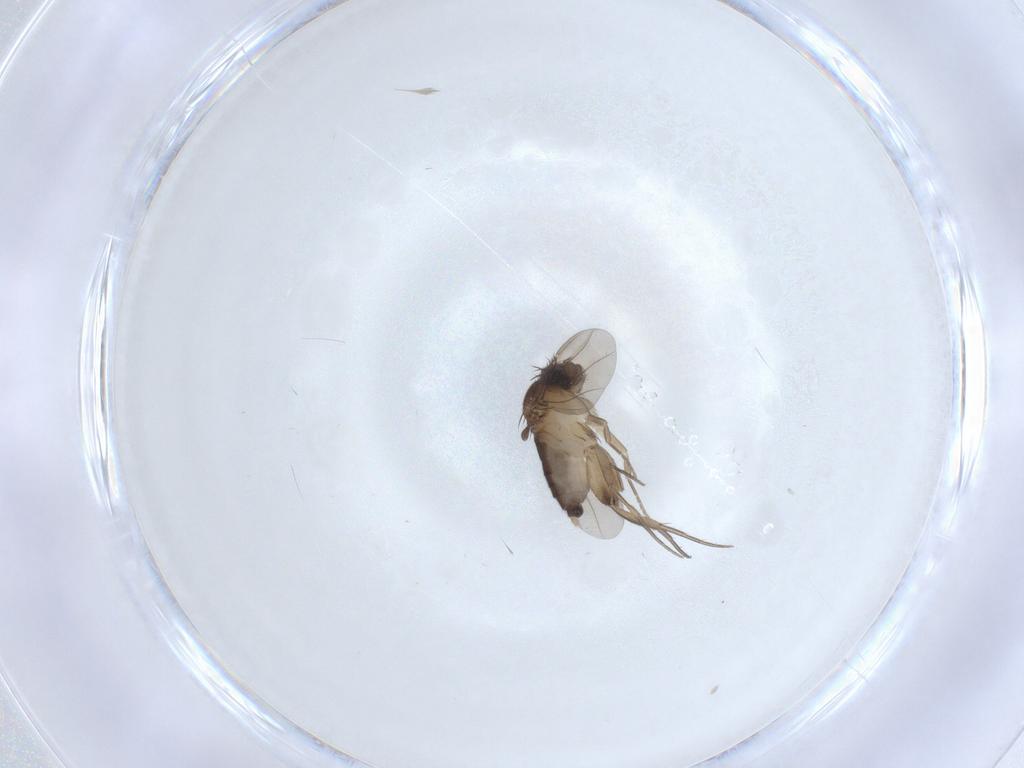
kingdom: Animalia
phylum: Arthropoda
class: Insecta
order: Diptera
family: Phoridae
